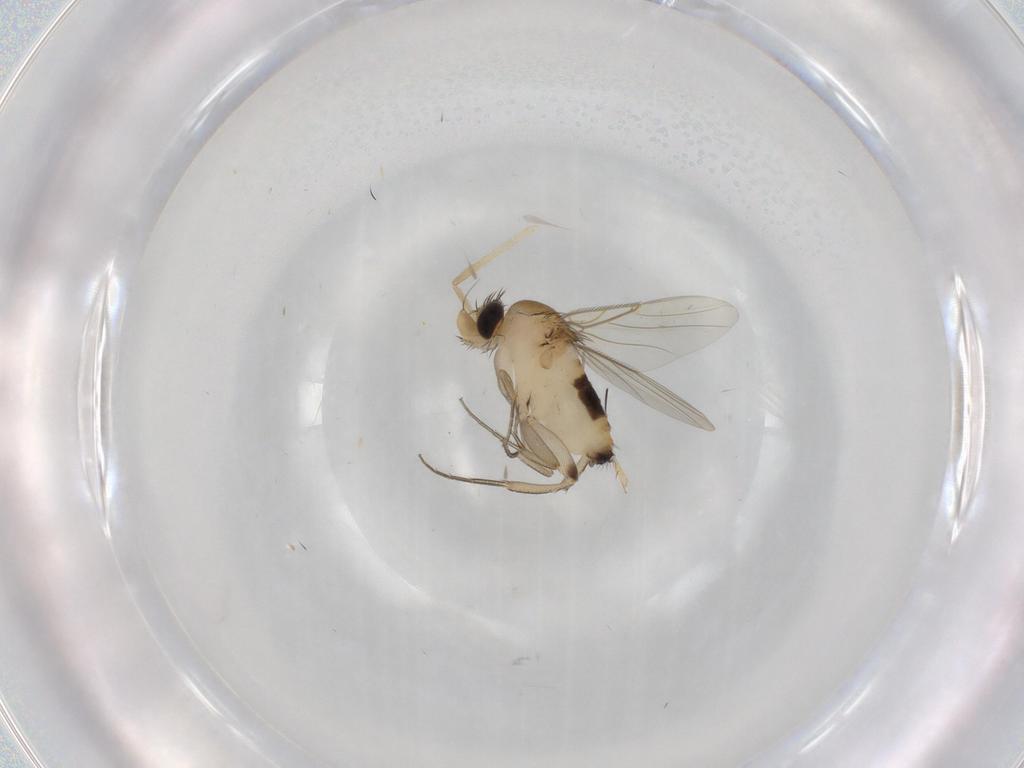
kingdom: Animalia
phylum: Arthropoda
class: Insecta
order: Diptera
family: Phoridae
